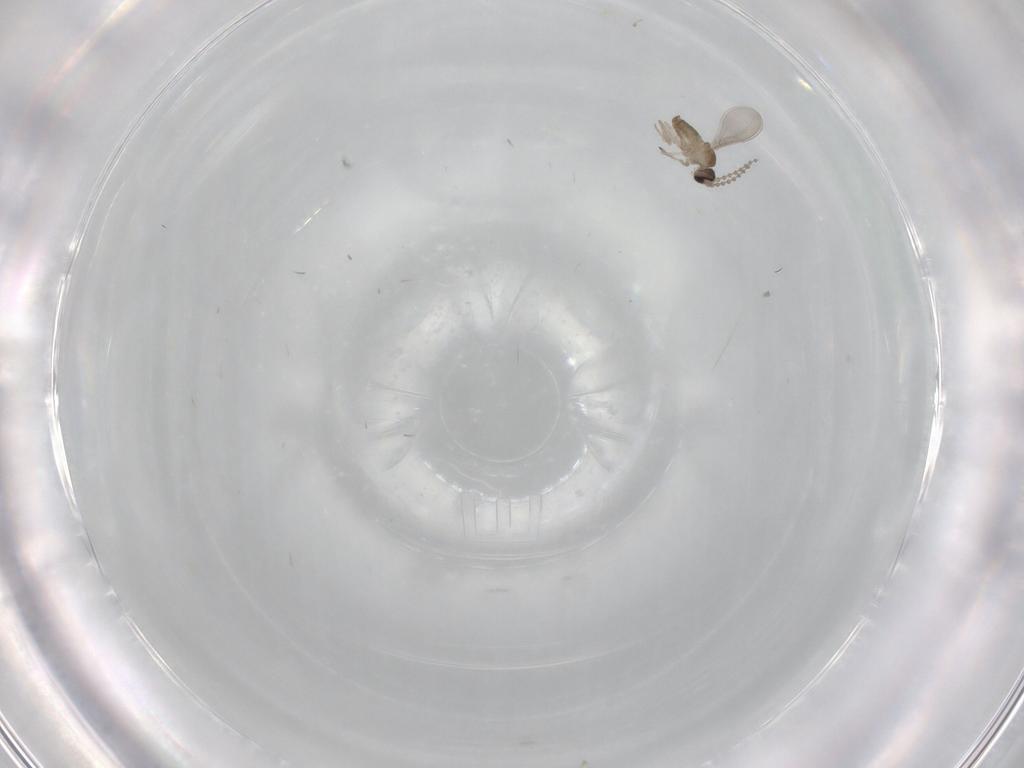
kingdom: Animalia
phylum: Arthropoda
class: Insecta
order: Diptera
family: Cecidomyiidae
